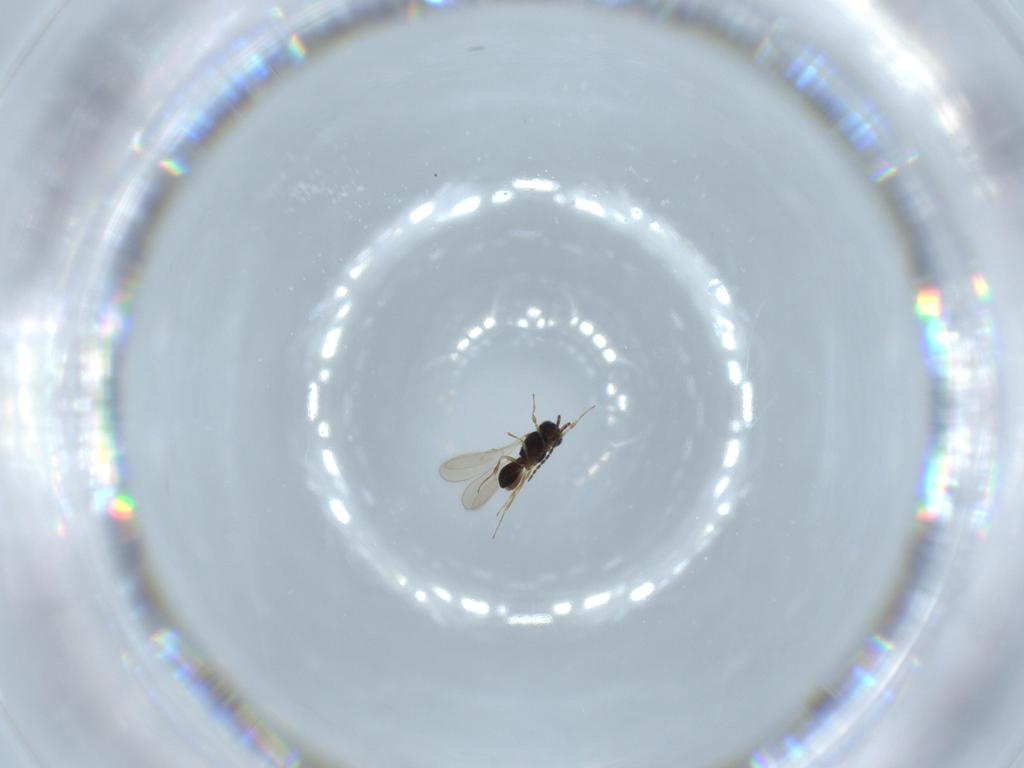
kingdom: Animalia
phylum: Arthropoda
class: Insecta
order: Hymenoptera
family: Scelionidae
